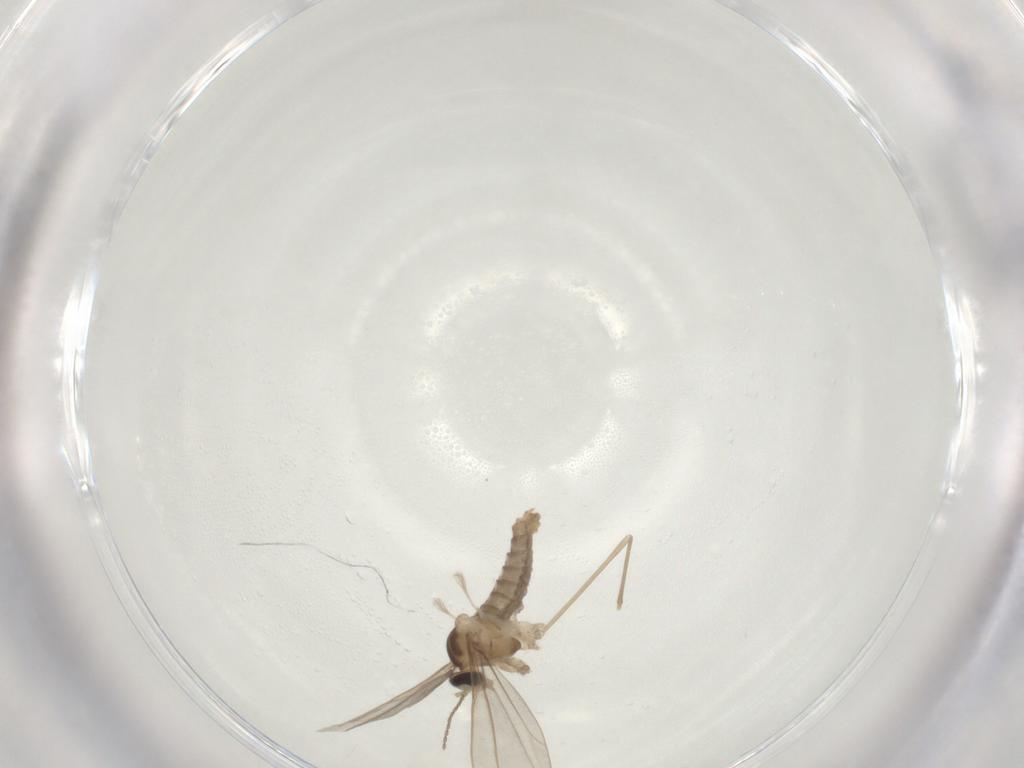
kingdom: Animalia
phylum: Arthropoda
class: Insecta
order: Diptera
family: Cecidomyiidae
